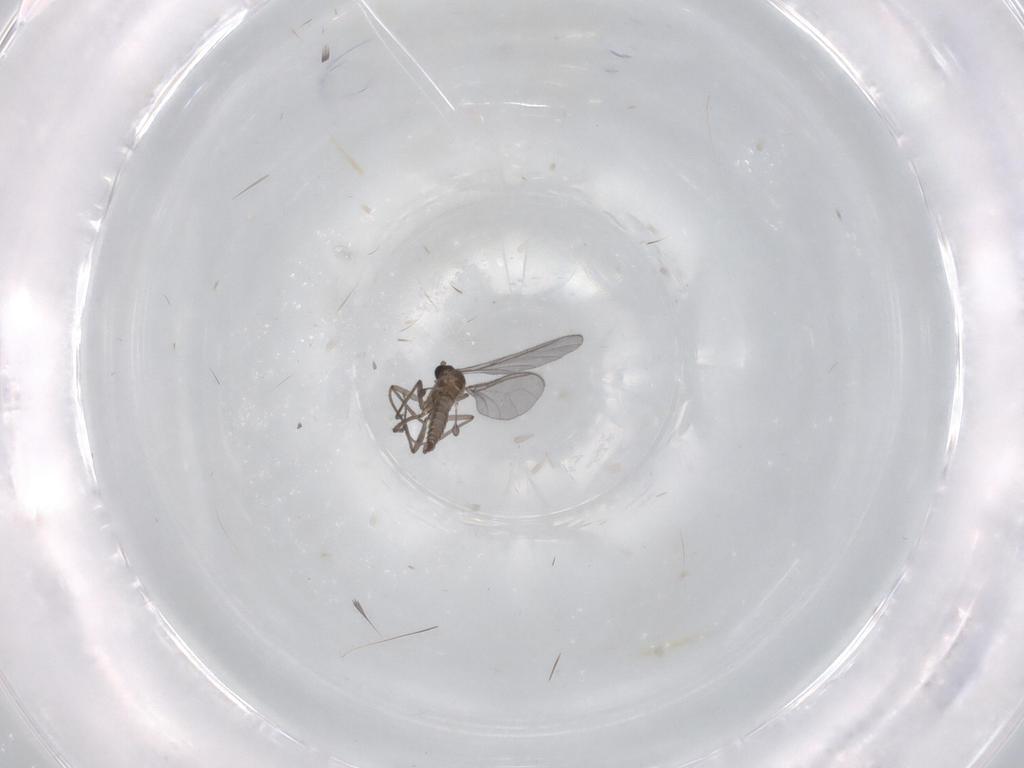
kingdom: Animalia
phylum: Arthropoda
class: Insecta
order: Diptera
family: Sciaridae
